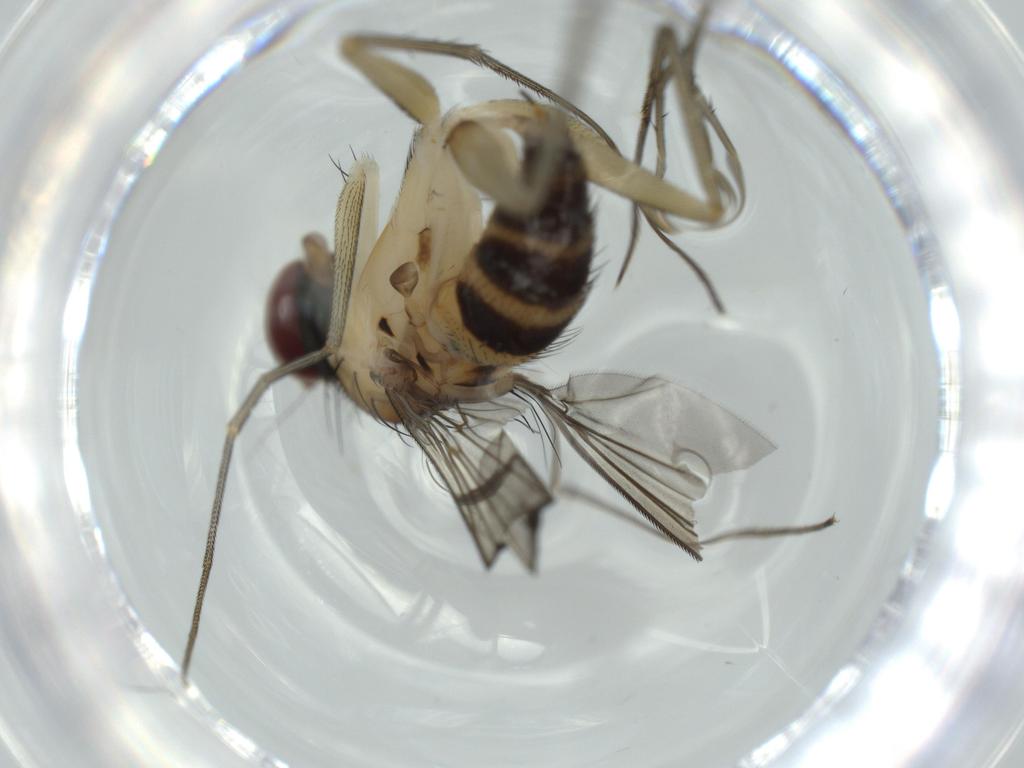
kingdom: Animalia
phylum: Arthropoda
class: Insecta
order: Diptera
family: Dolichopodidae
